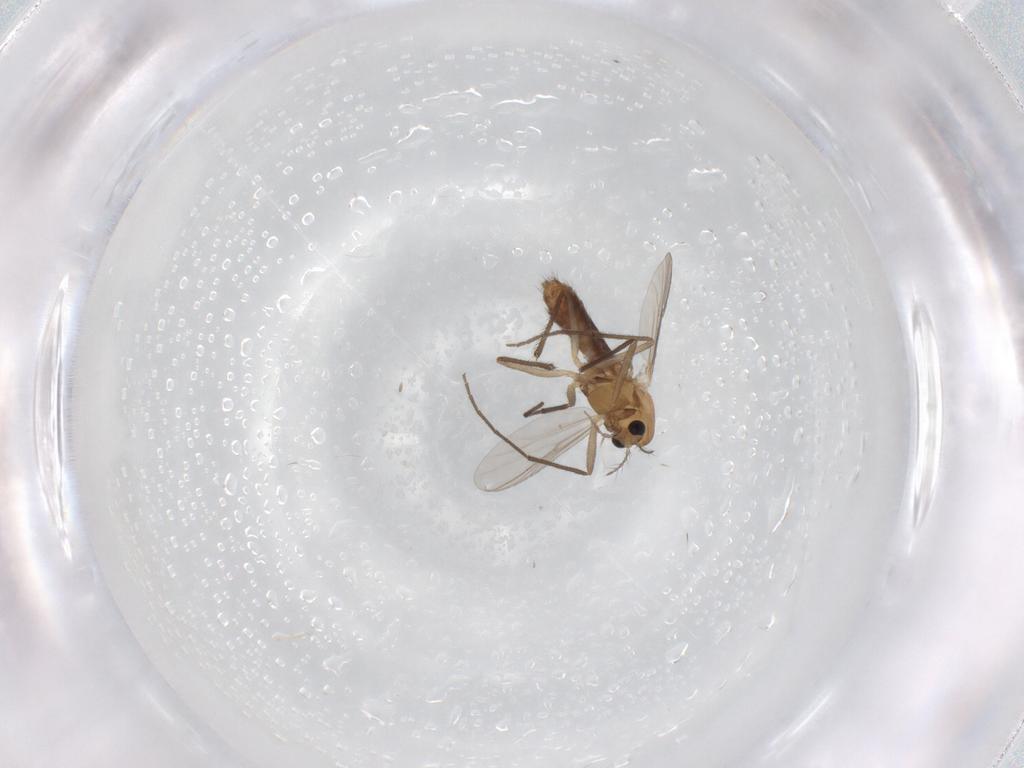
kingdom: Animalia
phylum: Arthropoda
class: Insecta
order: Diptera
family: Chironomidae
